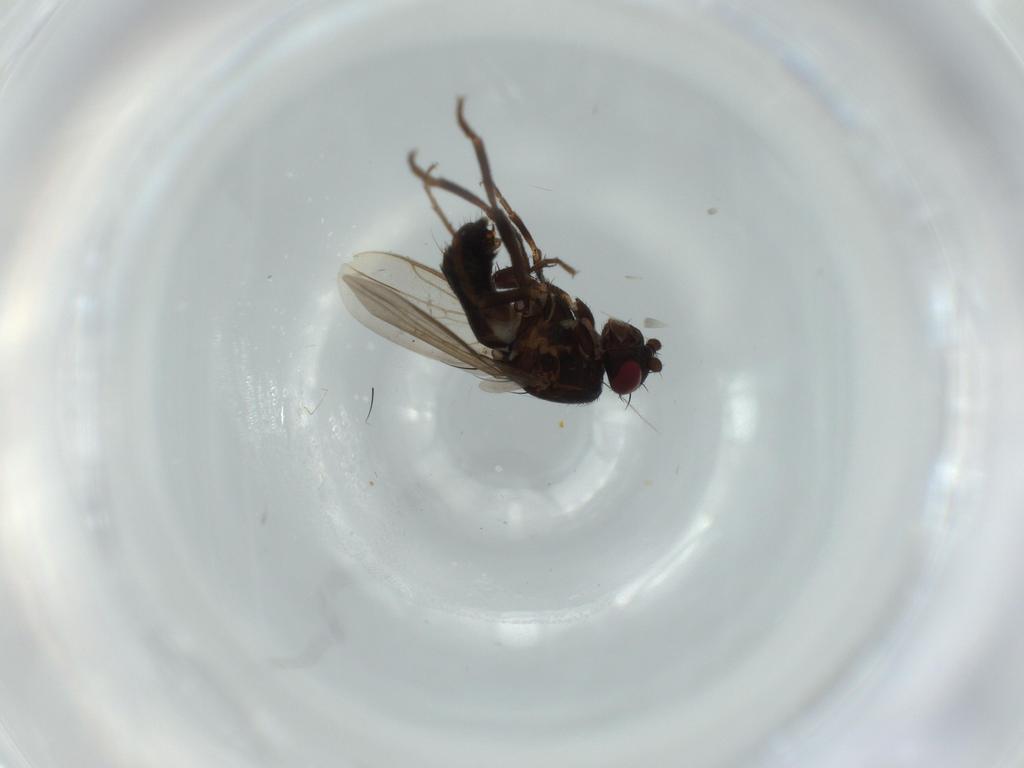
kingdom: Animalia
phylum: Arthropoda
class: Insecta
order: Diptera
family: Sphaeroceridae
